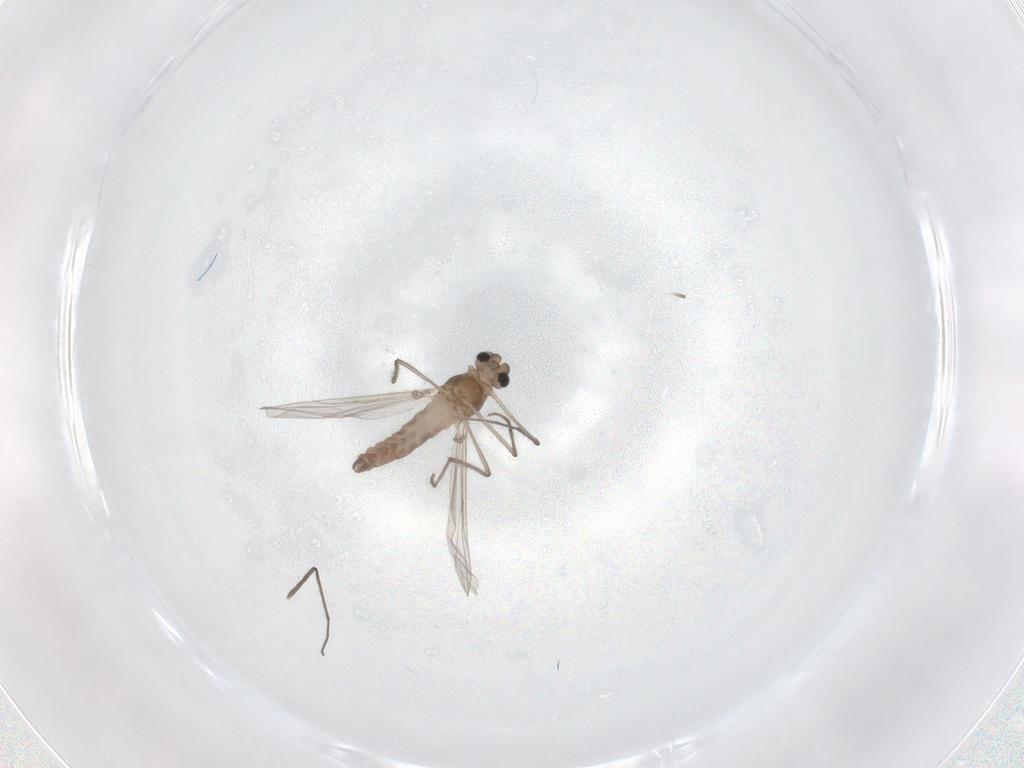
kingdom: Animalia
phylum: Arthropoda
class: Insecta
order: Diptera
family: Chironomidae
